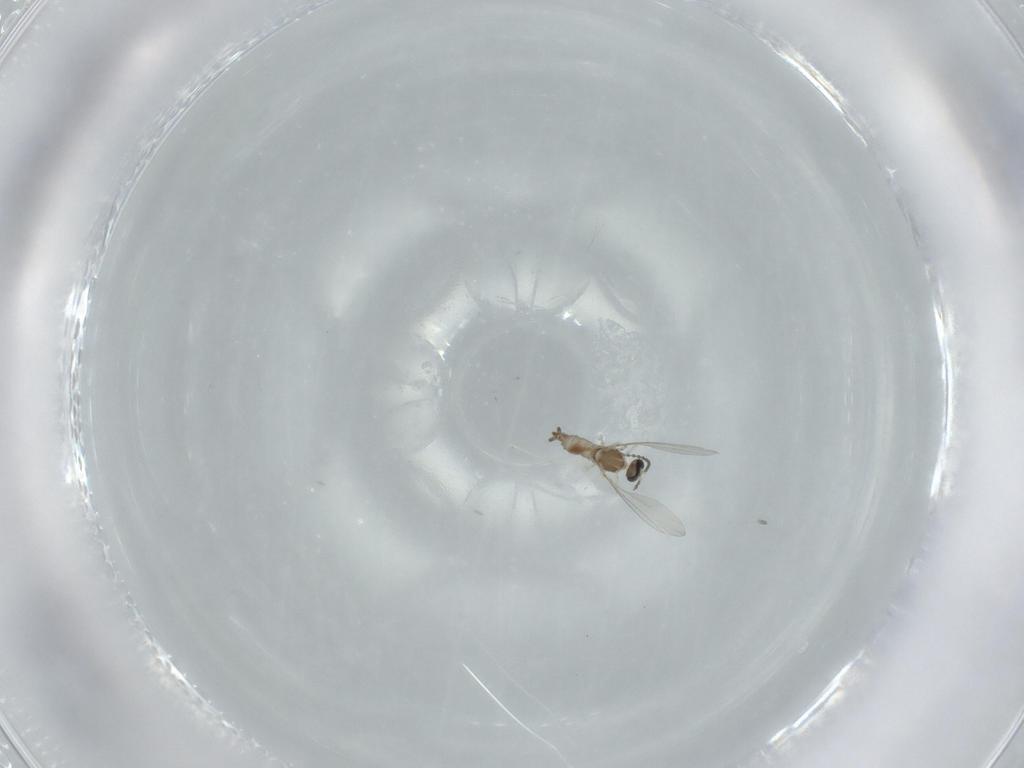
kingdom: Animalia
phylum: Arthropoda
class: Insecta
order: Diptera
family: Cecidomyiidae
